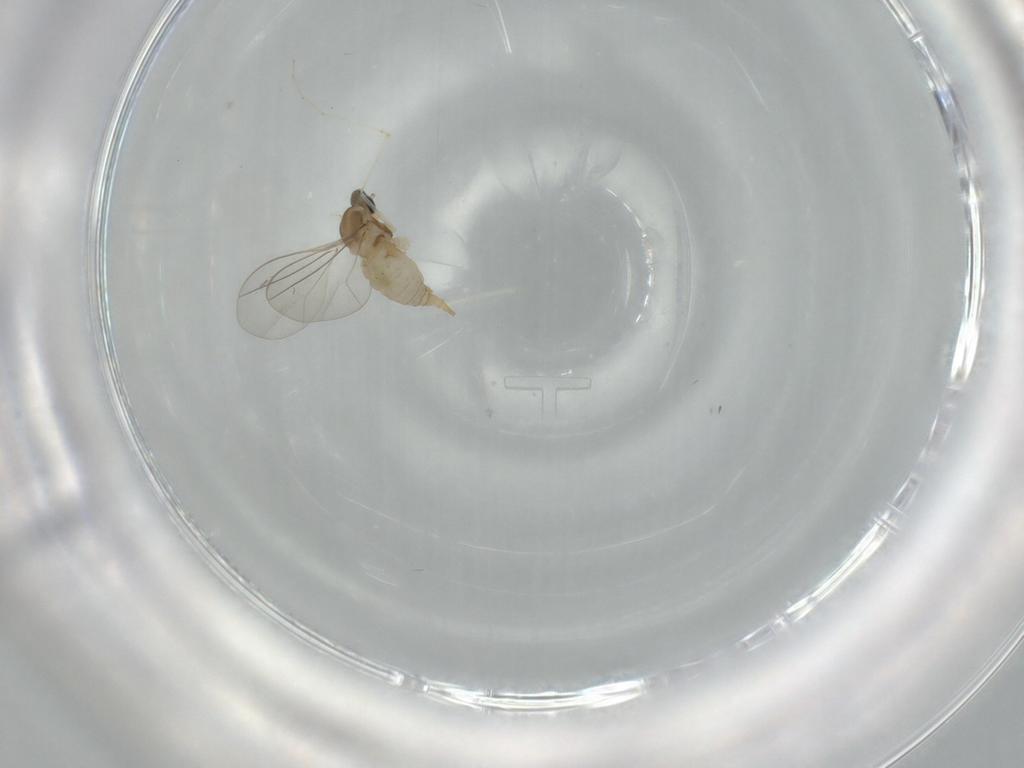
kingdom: Animalia
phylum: Arthropoda
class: Insecta
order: Diptera
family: Cecidomyiidae
